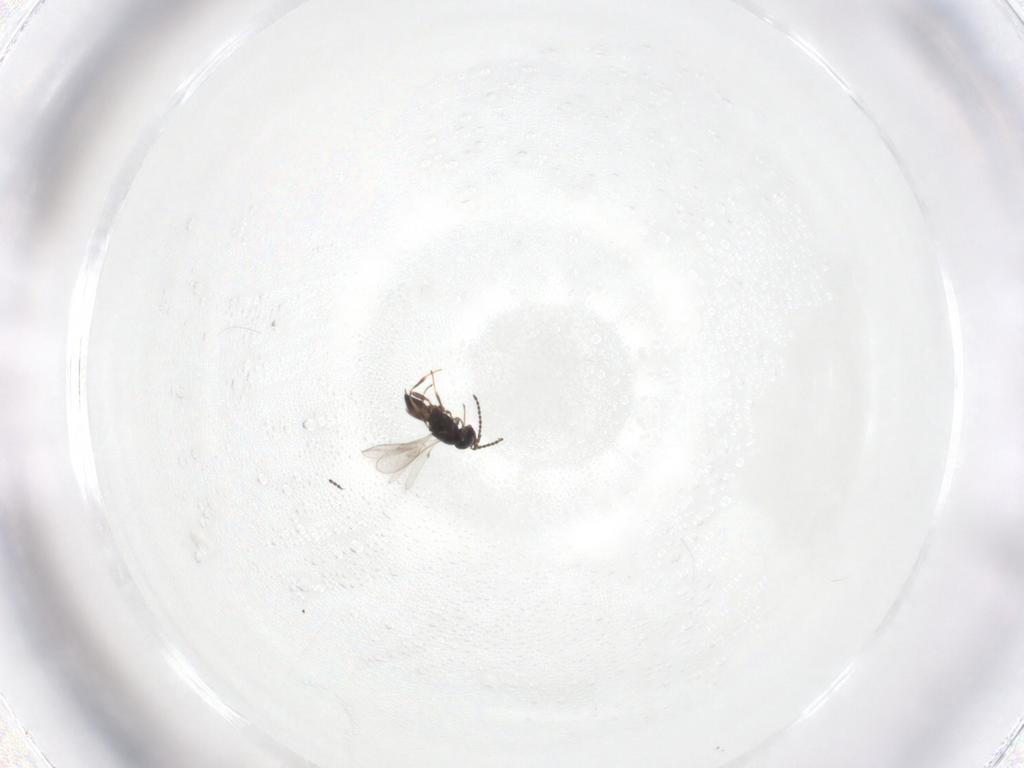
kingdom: Animalia
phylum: Arthropoda
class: Insecta
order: Hymenoptera
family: Scelionidae
